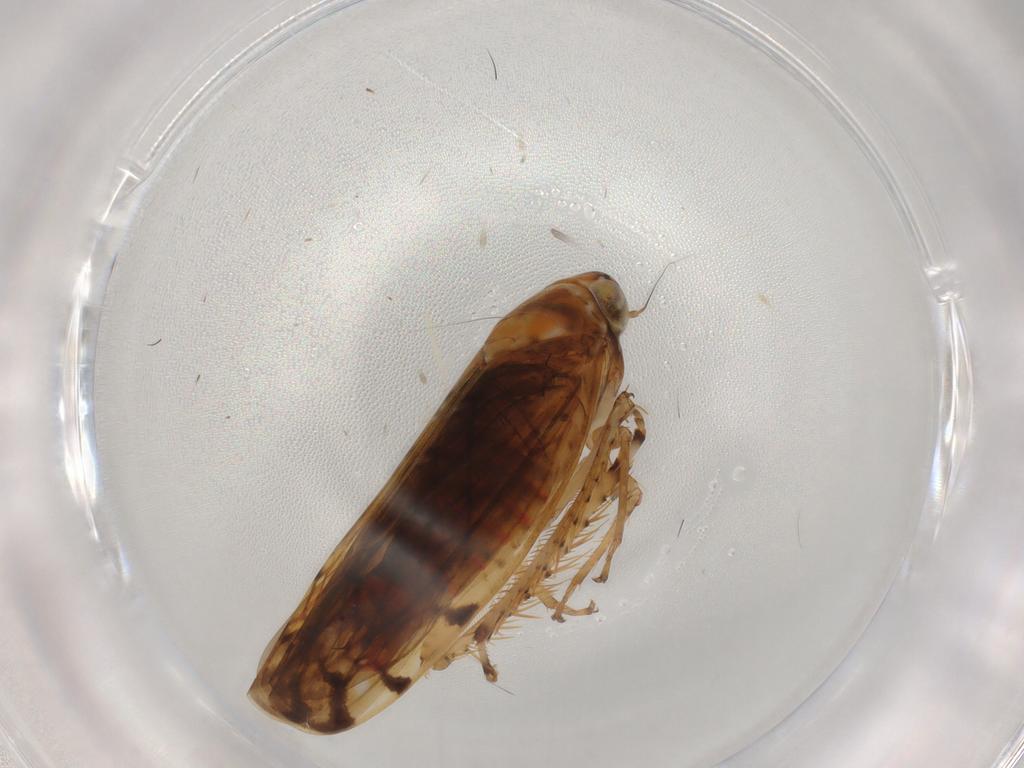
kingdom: Animalia
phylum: Arthropoda
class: Insecta
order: Hemiptera
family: Cicadellidae
